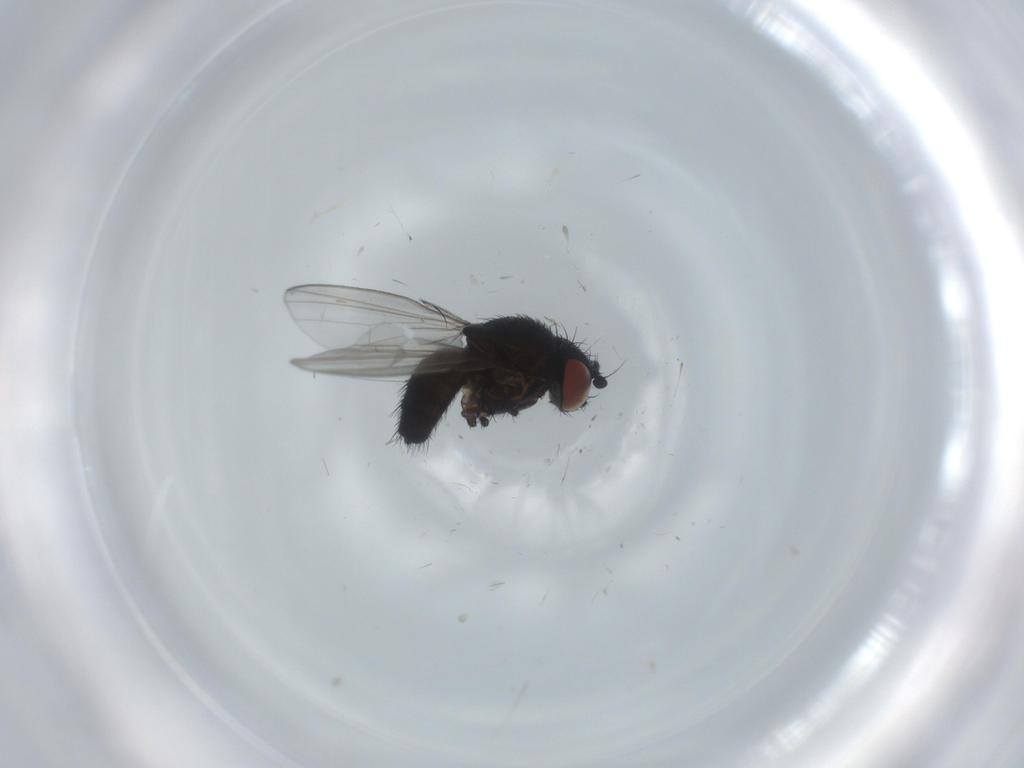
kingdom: Animalia
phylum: Arthropoda
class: Insecta
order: Diptera
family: Milichiidae
